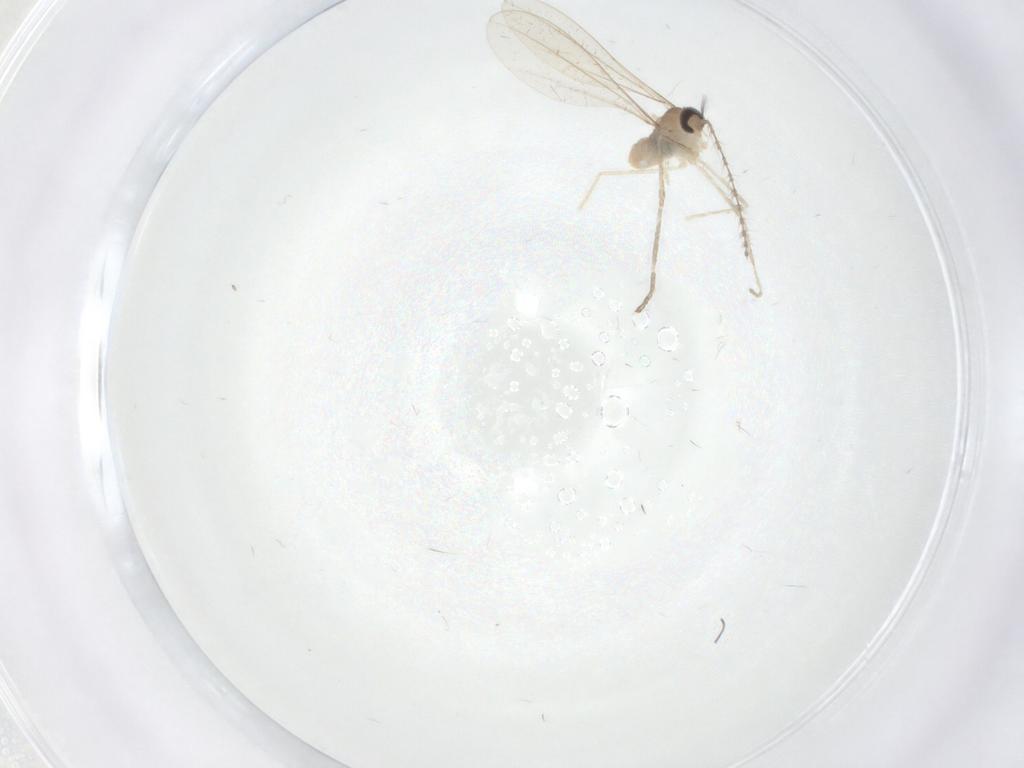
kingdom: Animalia
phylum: Arthropoda
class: Insecta
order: Diptera
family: Cecidomyiidae
